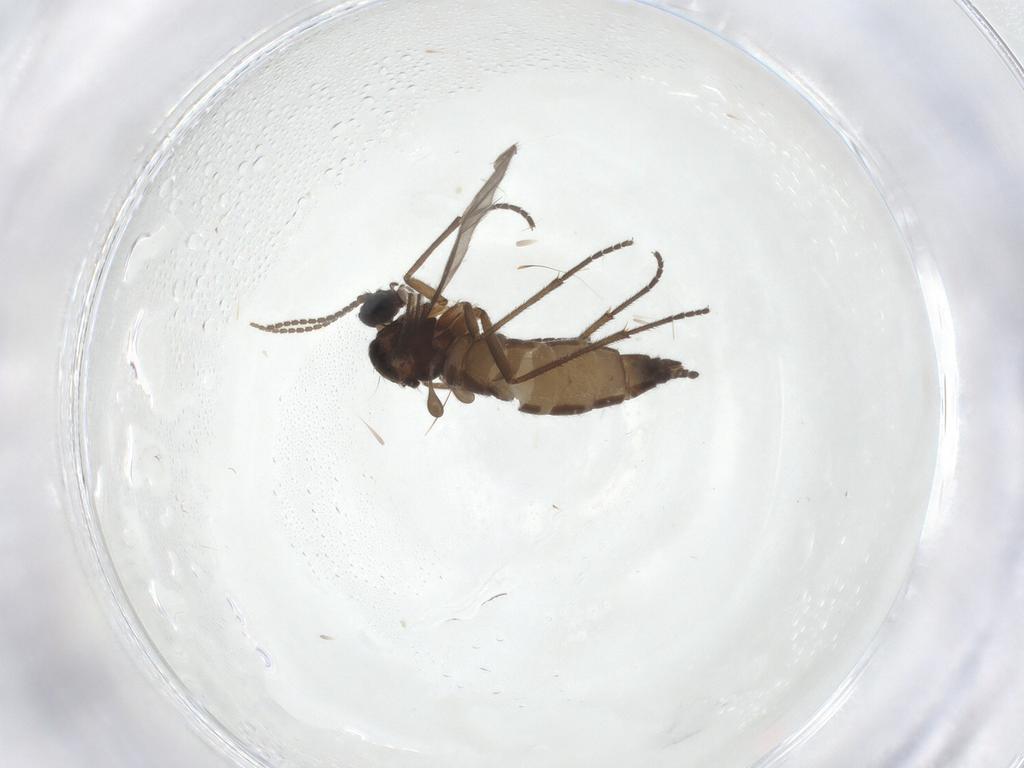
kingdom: Animalia
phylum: Arthropoda
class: Insecta
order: Diptera
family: Sciaridae
